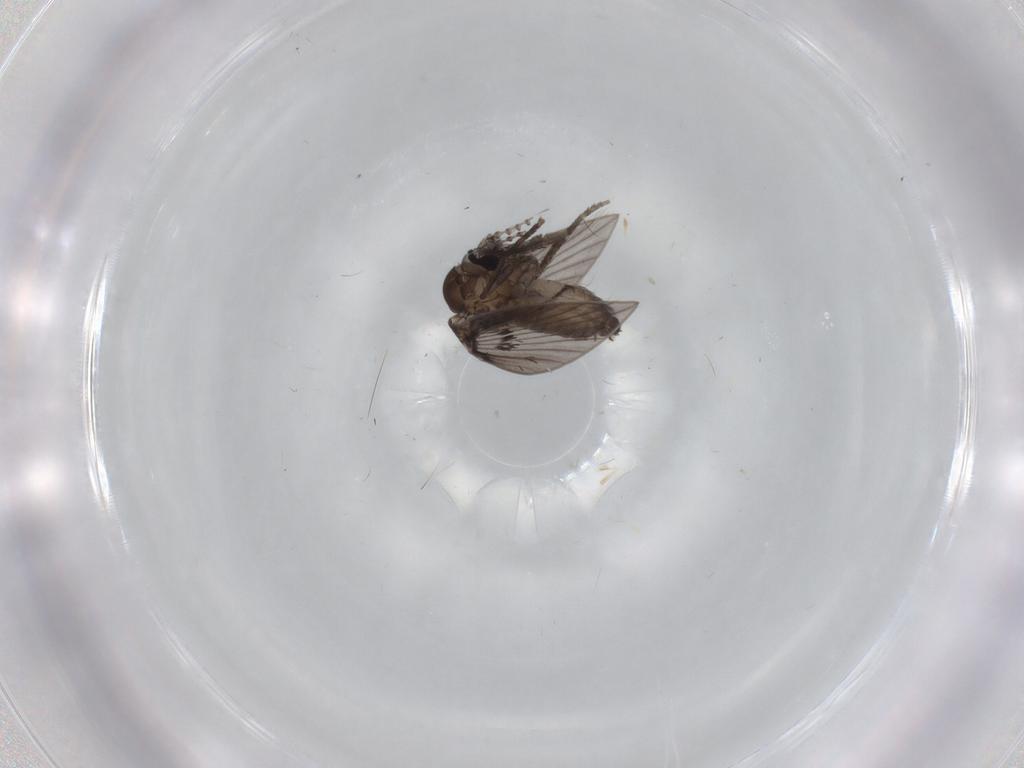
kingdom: Animalia
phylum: Arthropoda
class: Insecta
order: Diptera
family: Psychodidae
